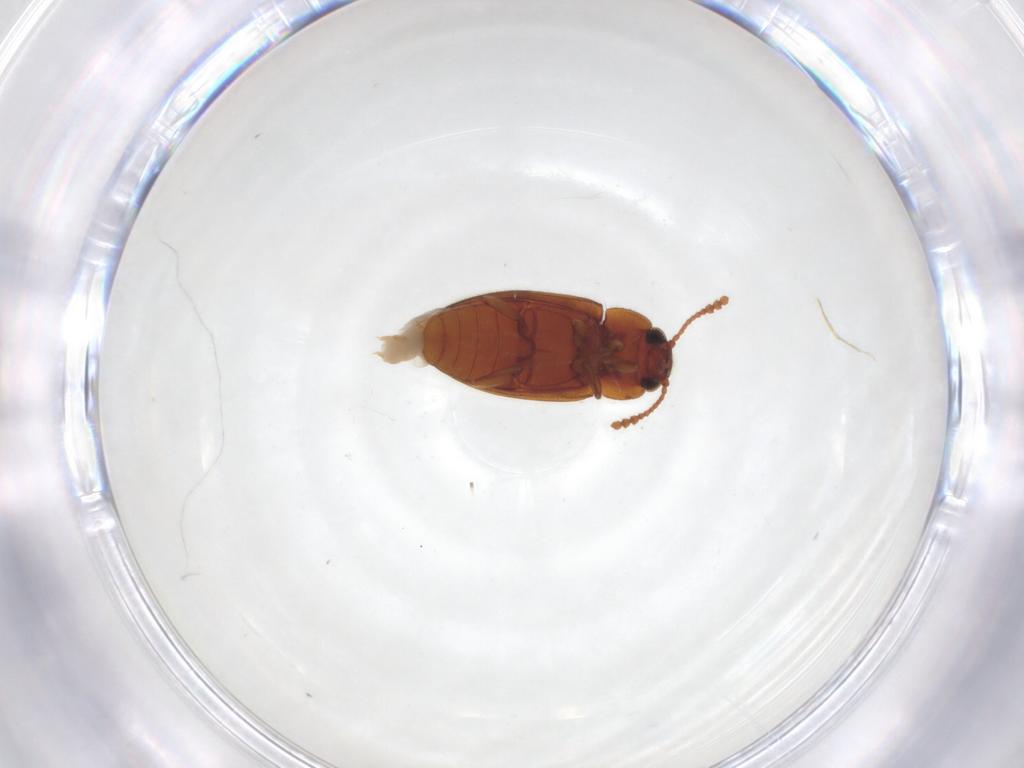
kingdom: Animalia
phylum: Arthropoda
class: Insecta
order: Coleoptera
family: Erotylidae
